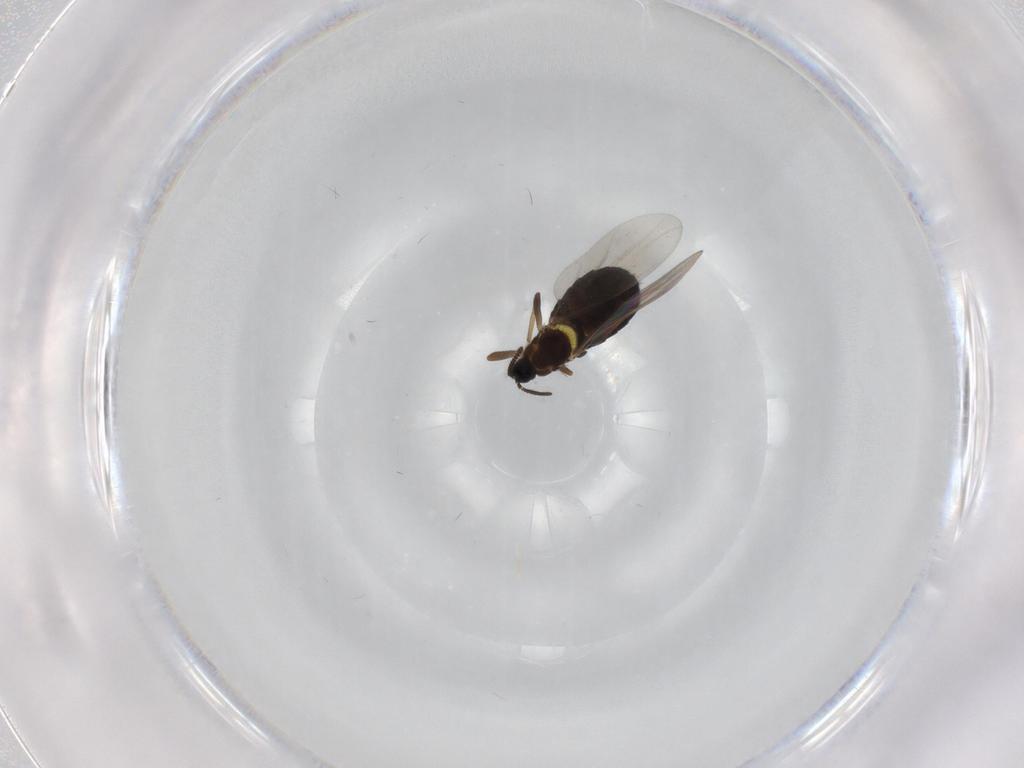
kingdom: Animalia
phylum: Arthropoda
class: Insecta
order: Diptera
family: Scatopsidae
